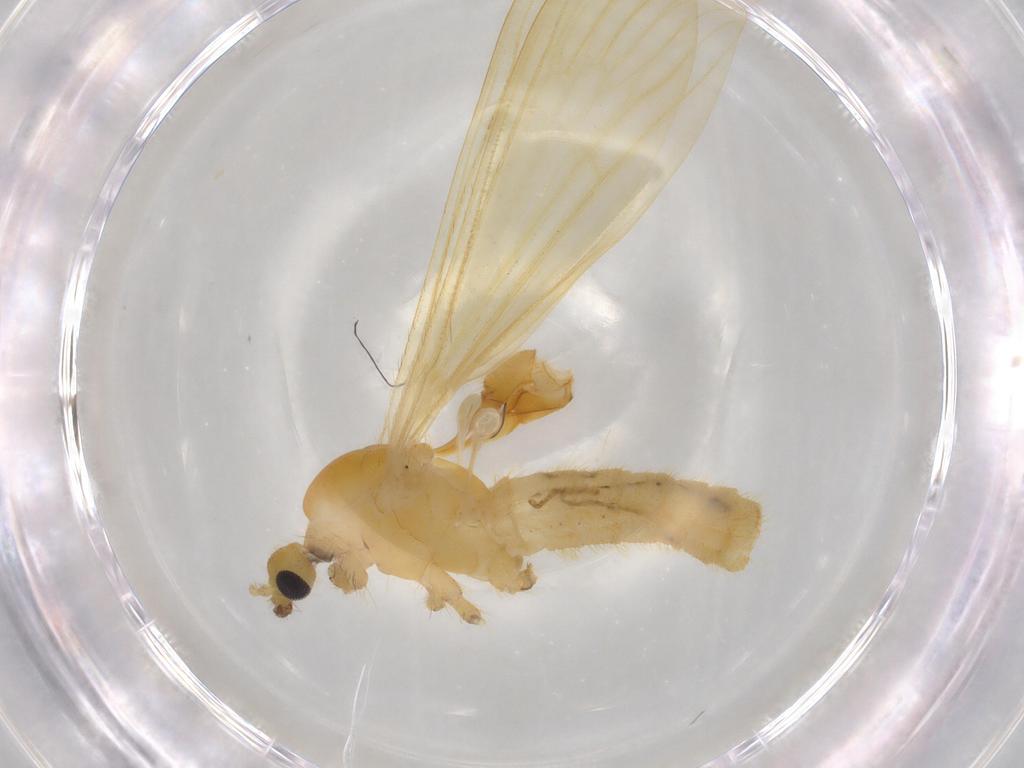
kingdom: Animalia
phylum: Arthropoda
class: Insecta
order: Diptera
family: Limoniidae
